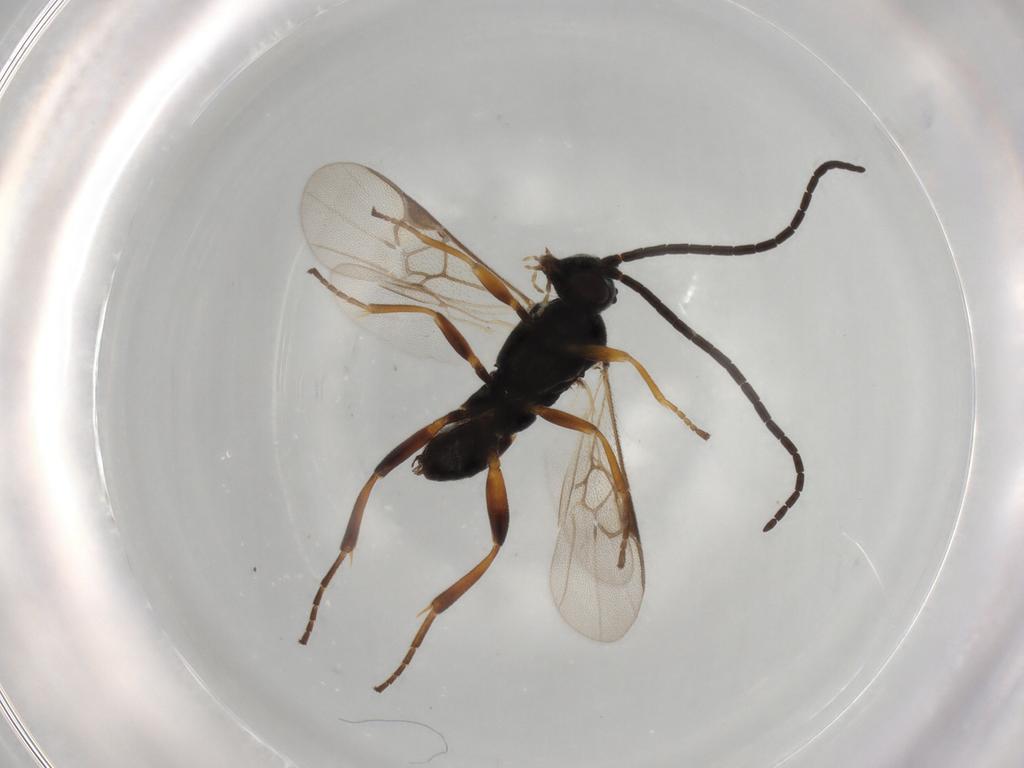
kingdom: Animalia
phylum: Arthropoda
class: Insecta
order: Hymenoptera
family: Braconidae
